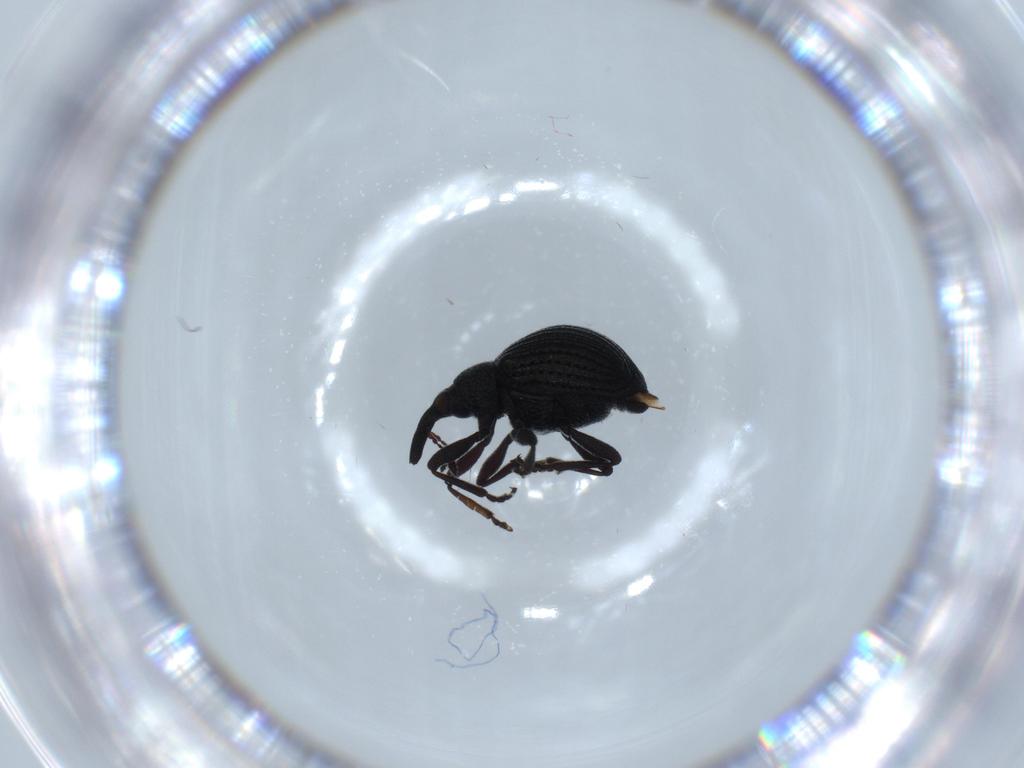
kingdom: Animalia
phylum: Arthropoda
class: Insecta
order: Coleoptera
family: Brentidae
